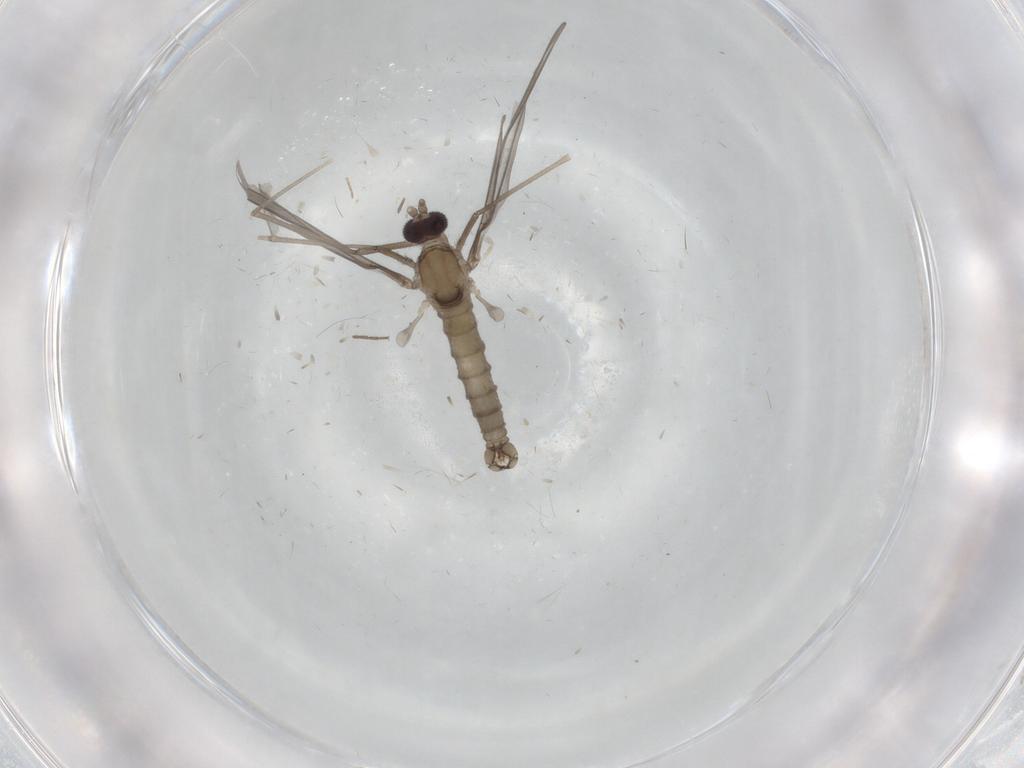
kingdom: Animalia
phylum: Arthropoda
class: Insecta
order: Diptera
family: Cecidomyiidae
